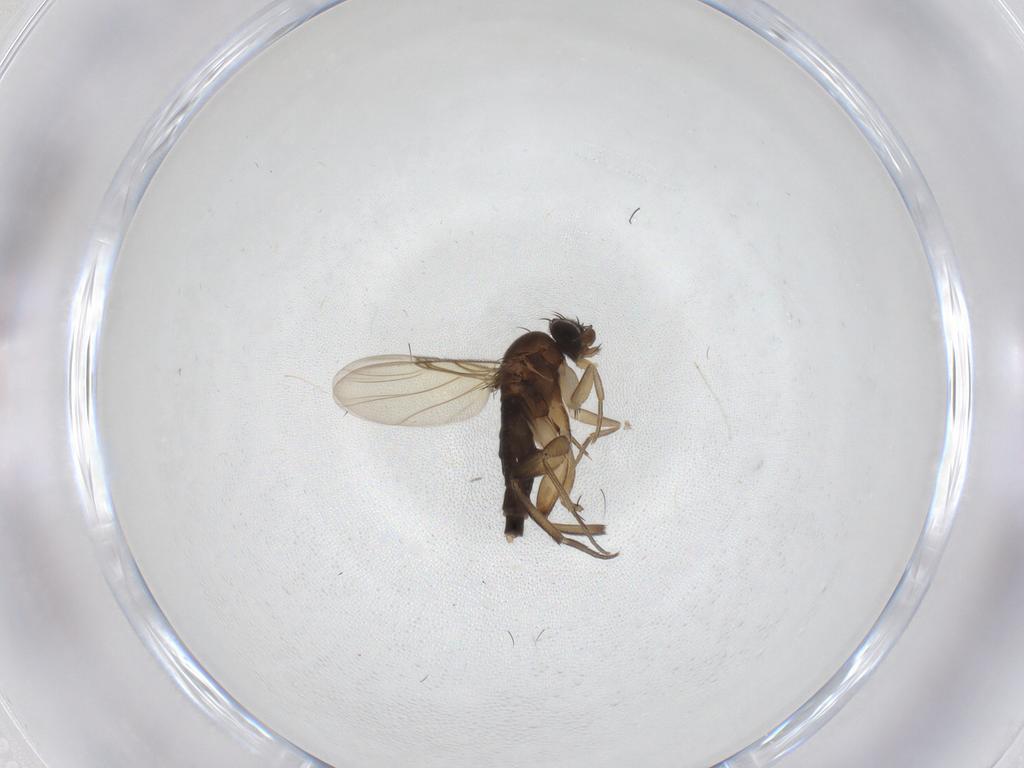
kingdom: Animalia
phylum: Arthropoda
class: Insecta
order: Diptera
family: Phoridae
